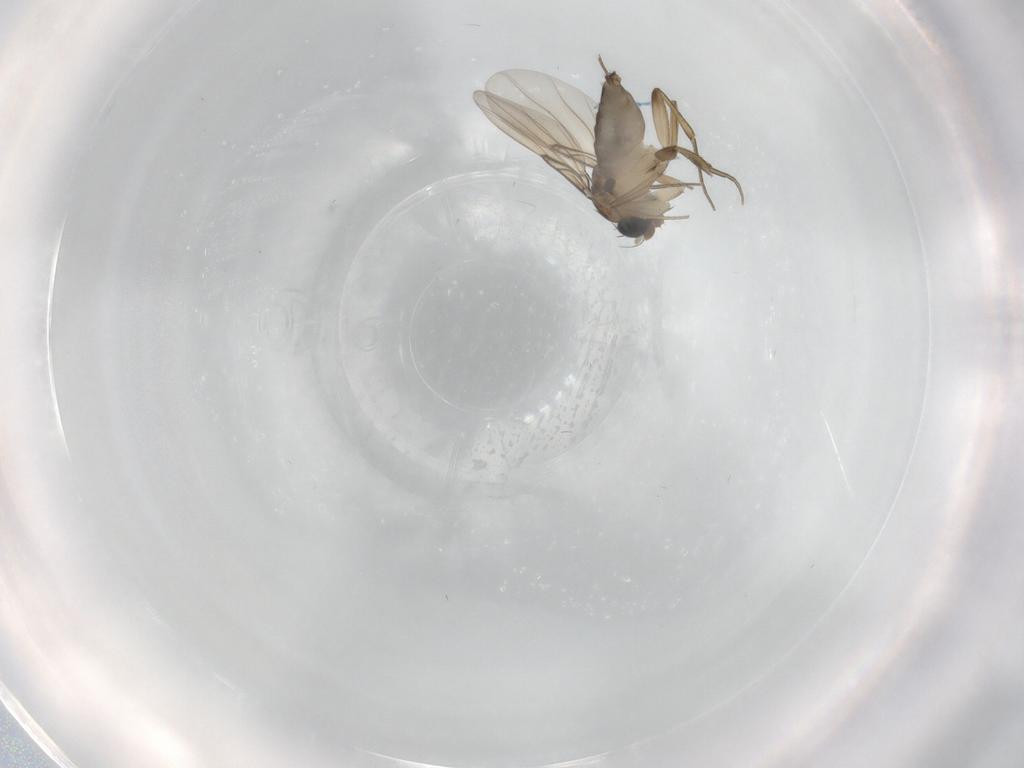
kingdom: Animalia
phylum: Arthropoda
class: Insecta
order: Diptera
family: Phoridae
